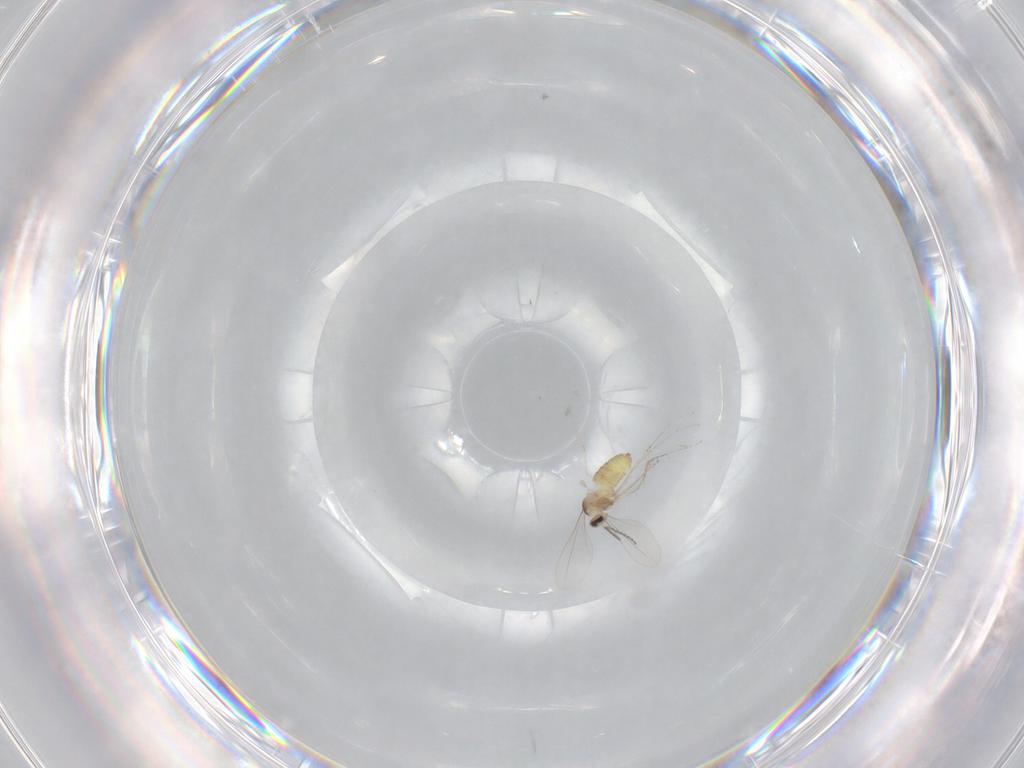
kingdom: Animalia
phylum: Arthropoda
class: Insecta
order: Diptera
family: Cecidomyiidae
